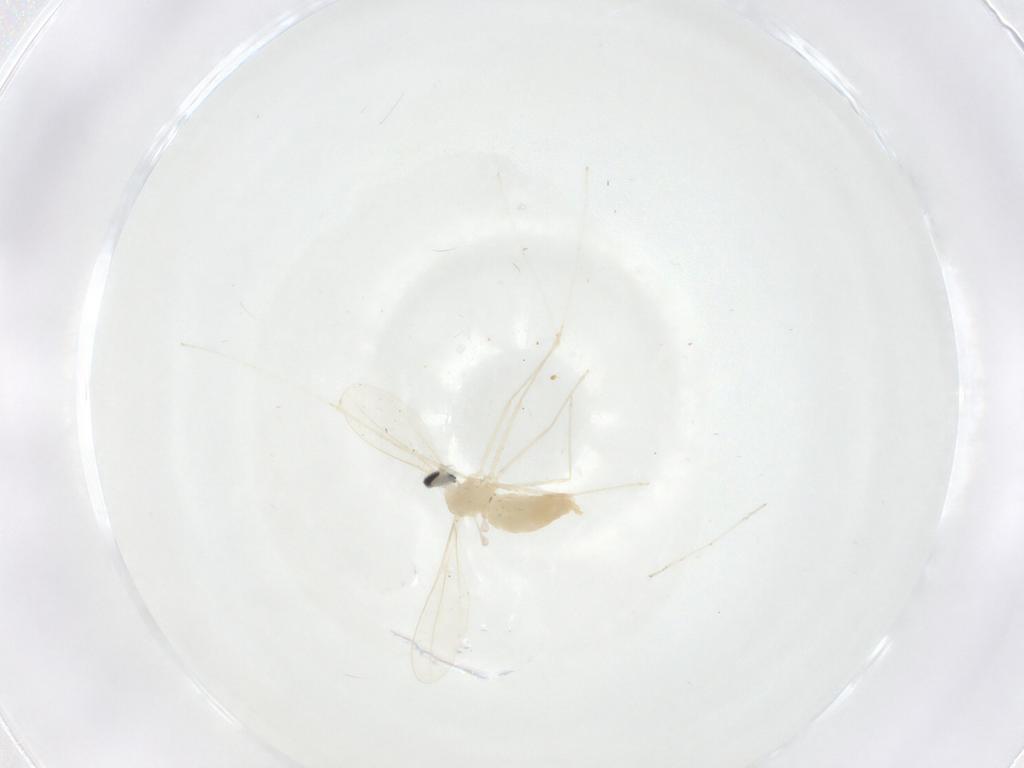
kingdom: Animalia
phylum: Arthropoda
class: Insecta
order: Diptera
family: Cecidomyiidae
